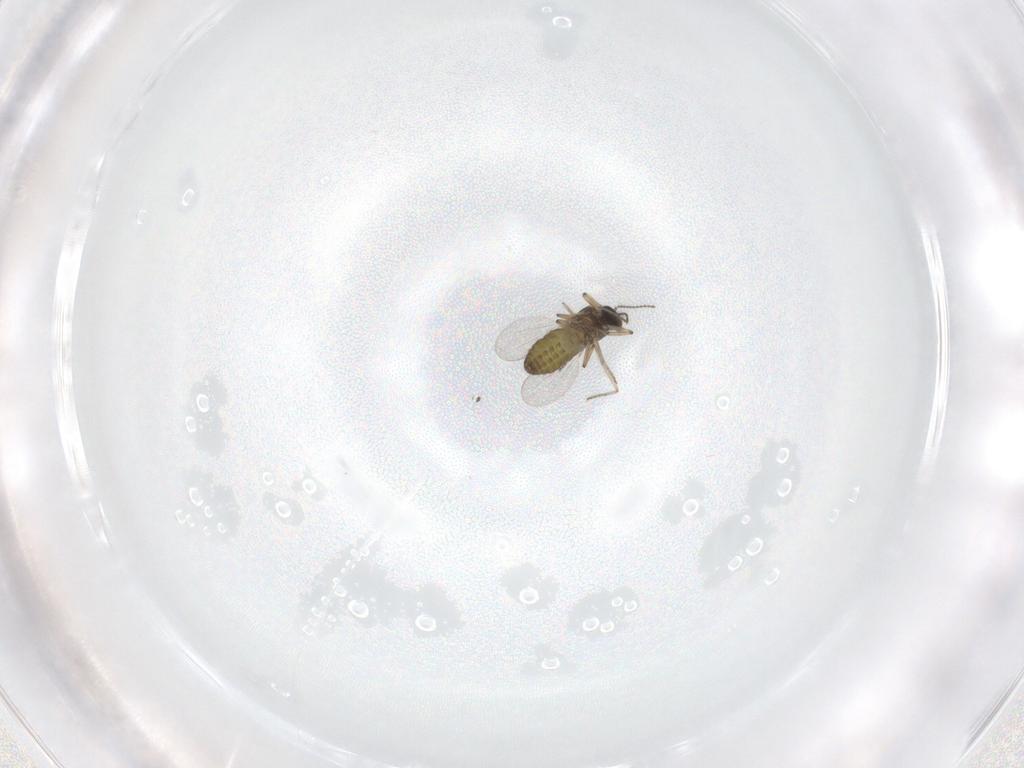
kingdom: Animalia
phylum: Arthropoda
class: Insecta
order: Diptera
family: Ceratopogonidae
